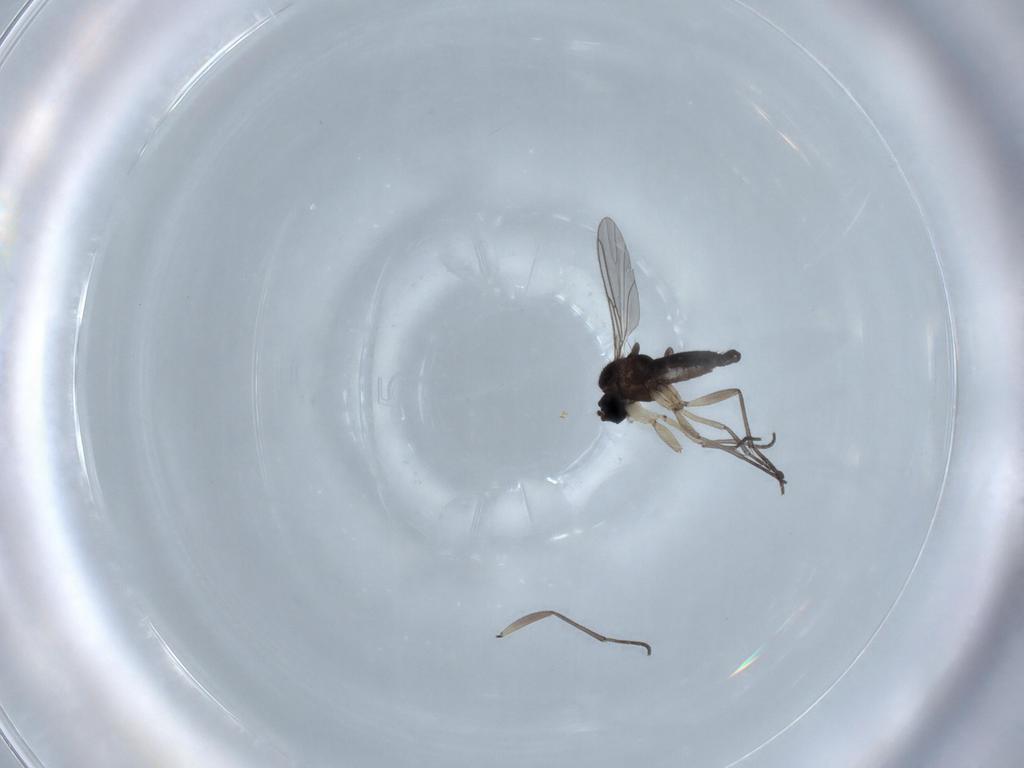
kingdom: Animalia
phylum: Arthropoda
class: Insecta
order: Diptera
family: Sciaridae
